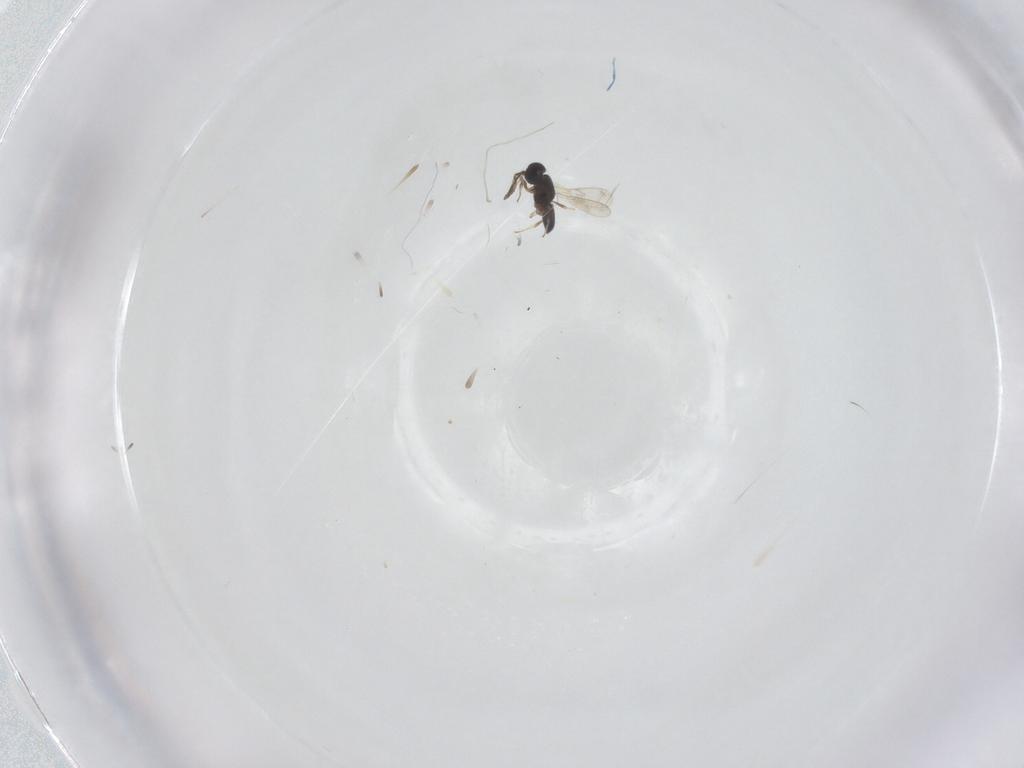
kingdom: Animalia
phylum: Arthropoda
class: Insecta
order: Hymenoptera
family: Scelionidae
